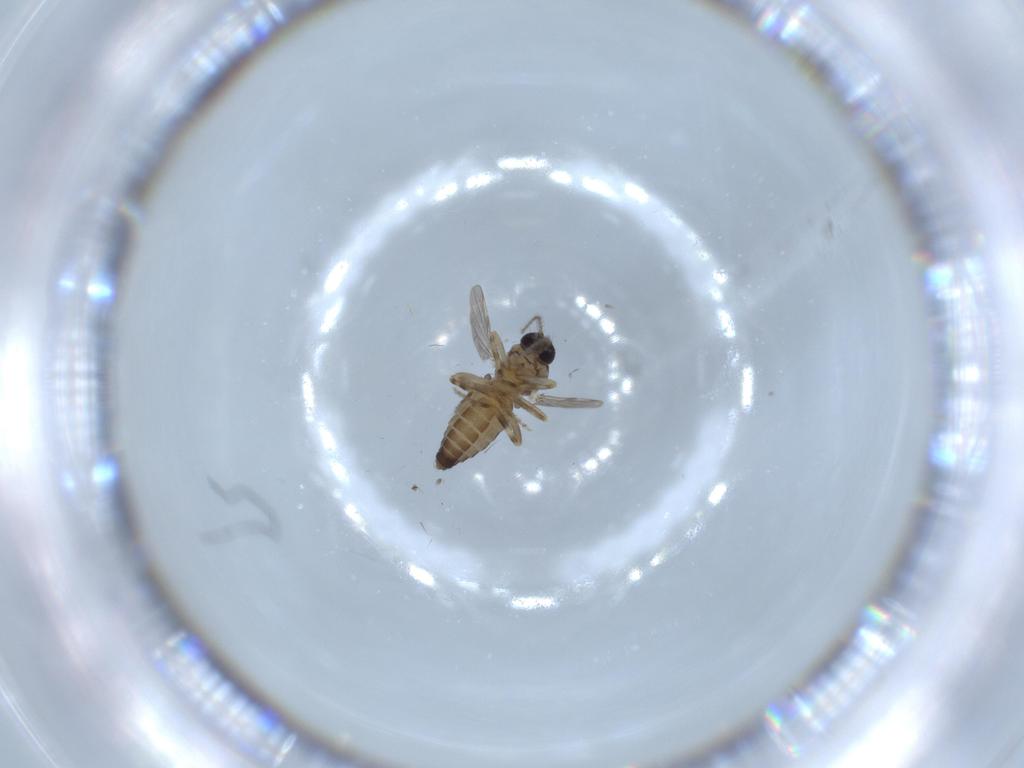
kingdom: Animalia
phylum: Arthropoda
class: Insecta
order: Diptera
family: Ceratopogonidae
